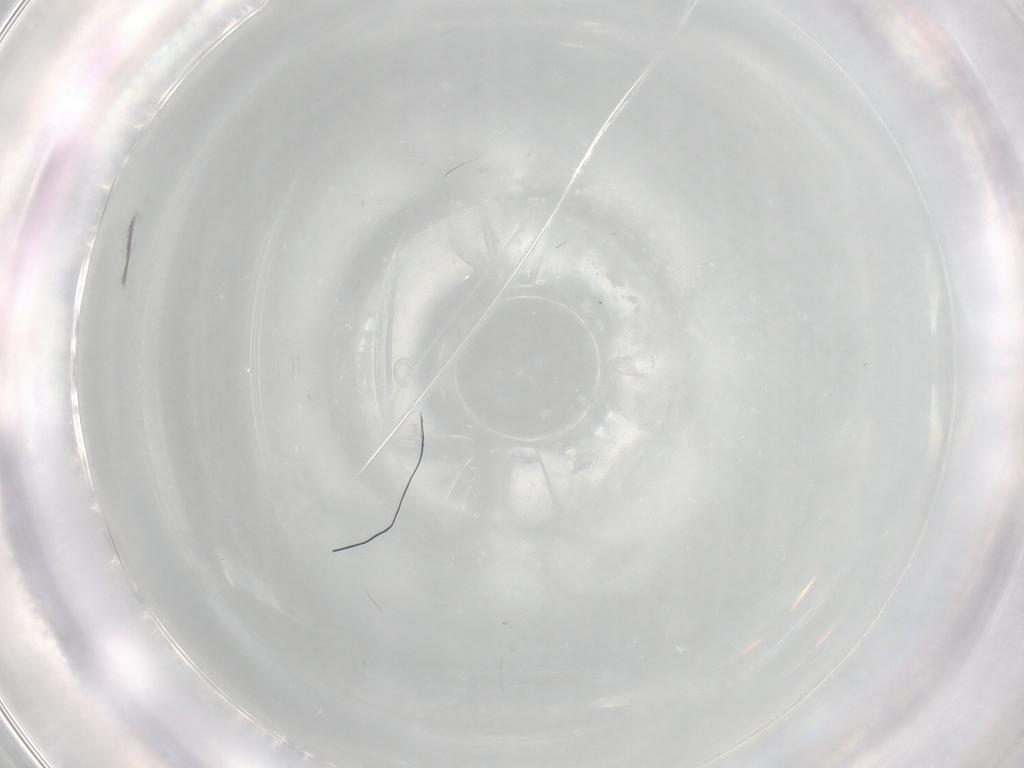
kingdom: Animalia
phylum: Arthropoda
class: Insecta
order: Diptera
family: Cecidomyiidae
